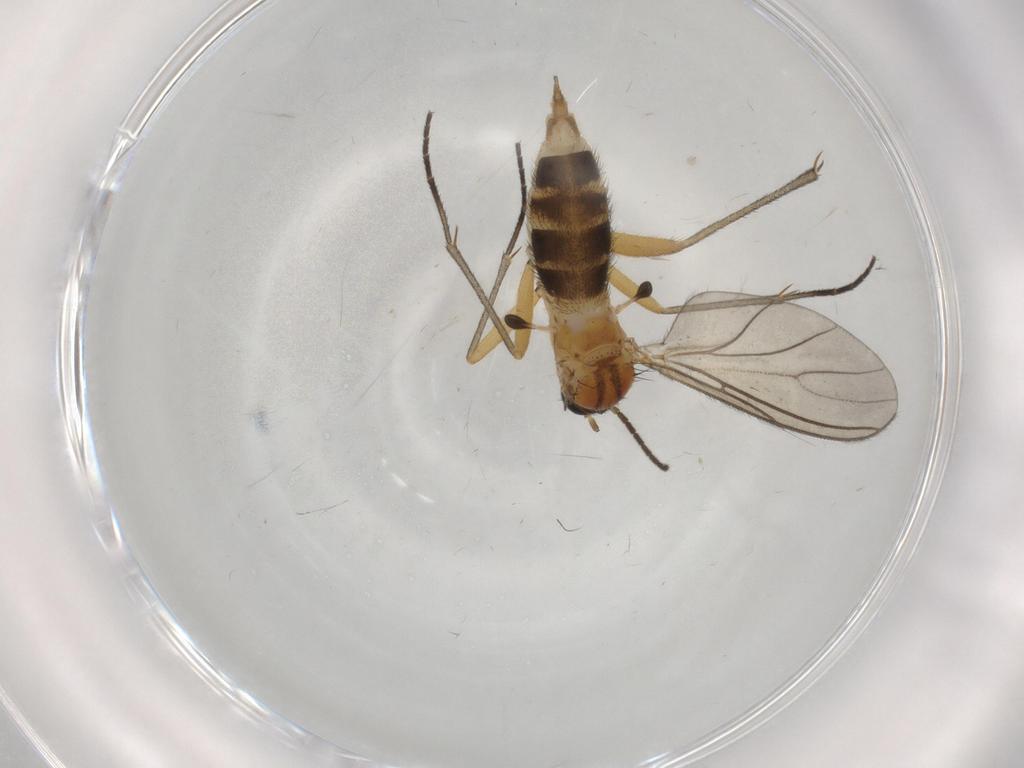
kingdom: Animalia
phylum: Arthropoda
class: Insecta
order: Diptera
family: Sciaridae
